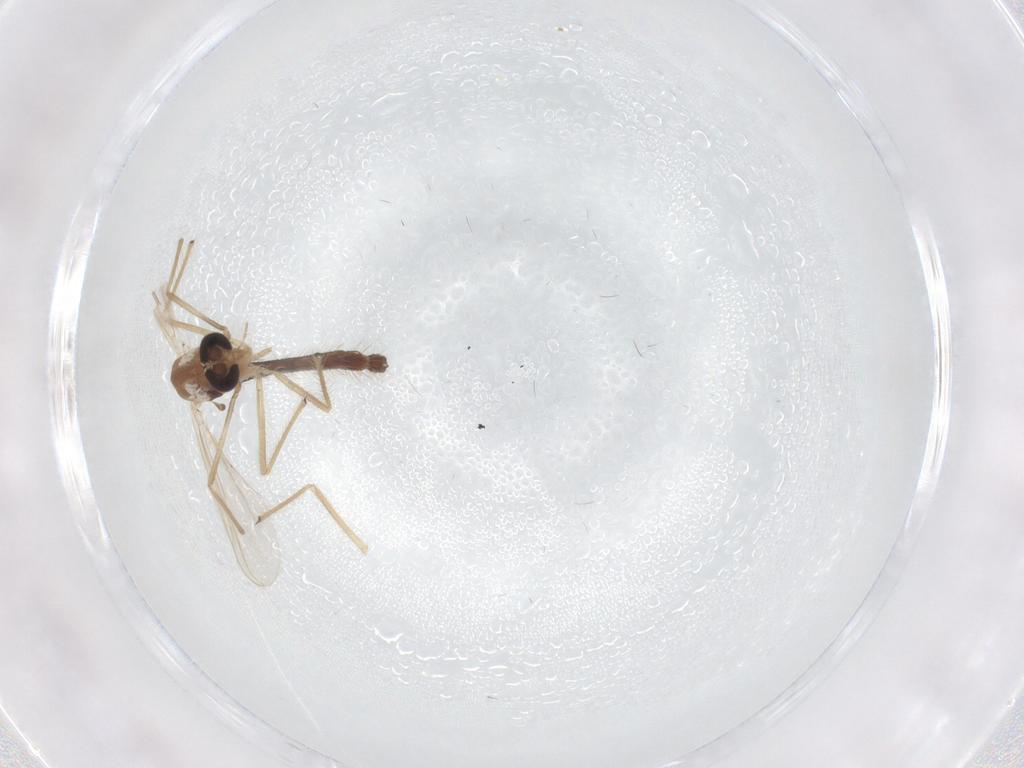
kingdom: Animalia
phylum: Arthropoda
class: Insecta
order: Diptera
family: Chironomidae
